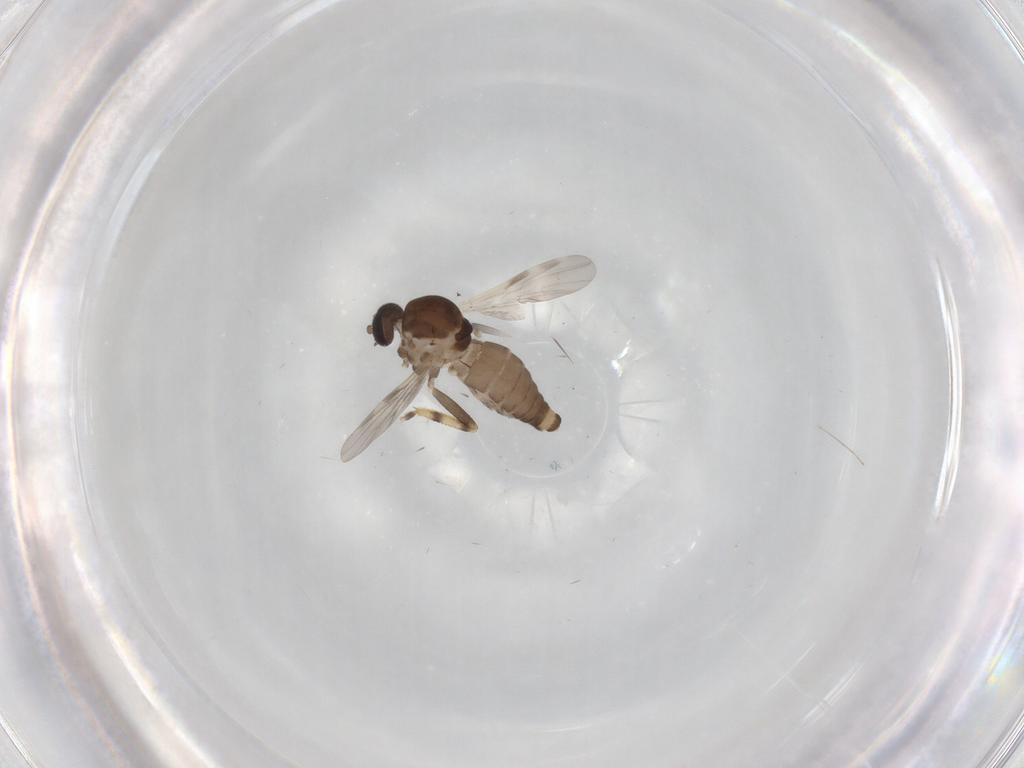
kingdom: Animalia
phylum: Arthropoda
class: Insecta
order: Diptera
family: Ceratopogonidae
